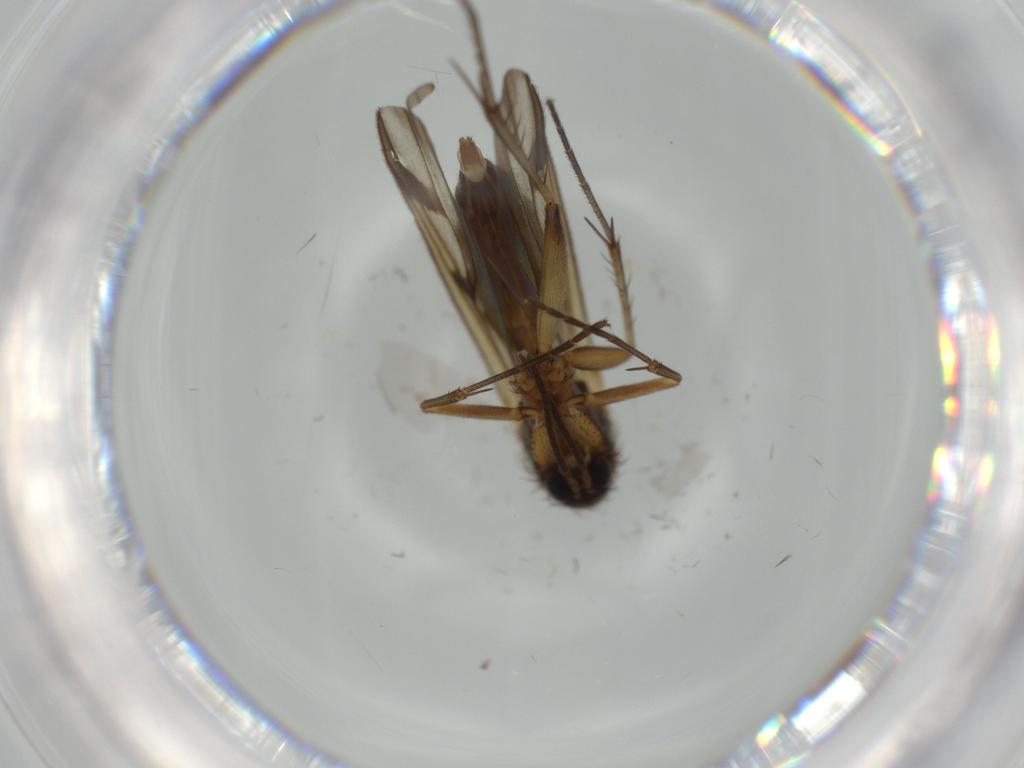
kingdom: Animalia
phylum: Arthropoda
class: Insecta
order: Diptera
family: Mycetophilidae
